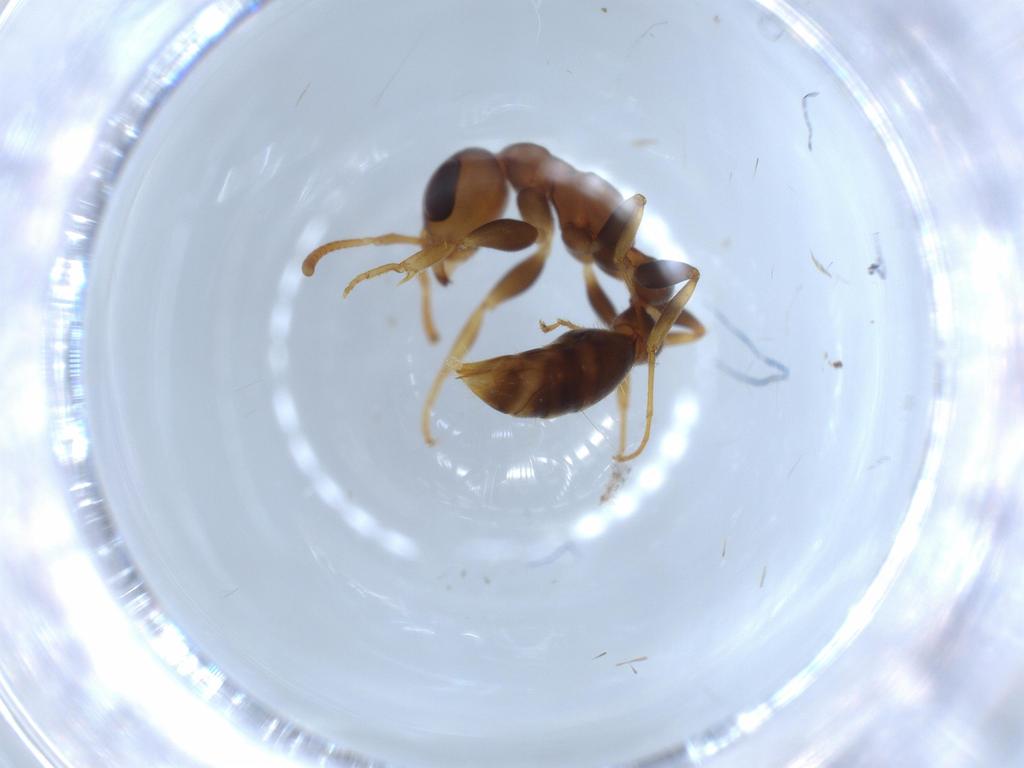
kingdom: Animalia
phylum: Arthropoda
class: Insecta
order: Hymenoptera
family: Formicidae
